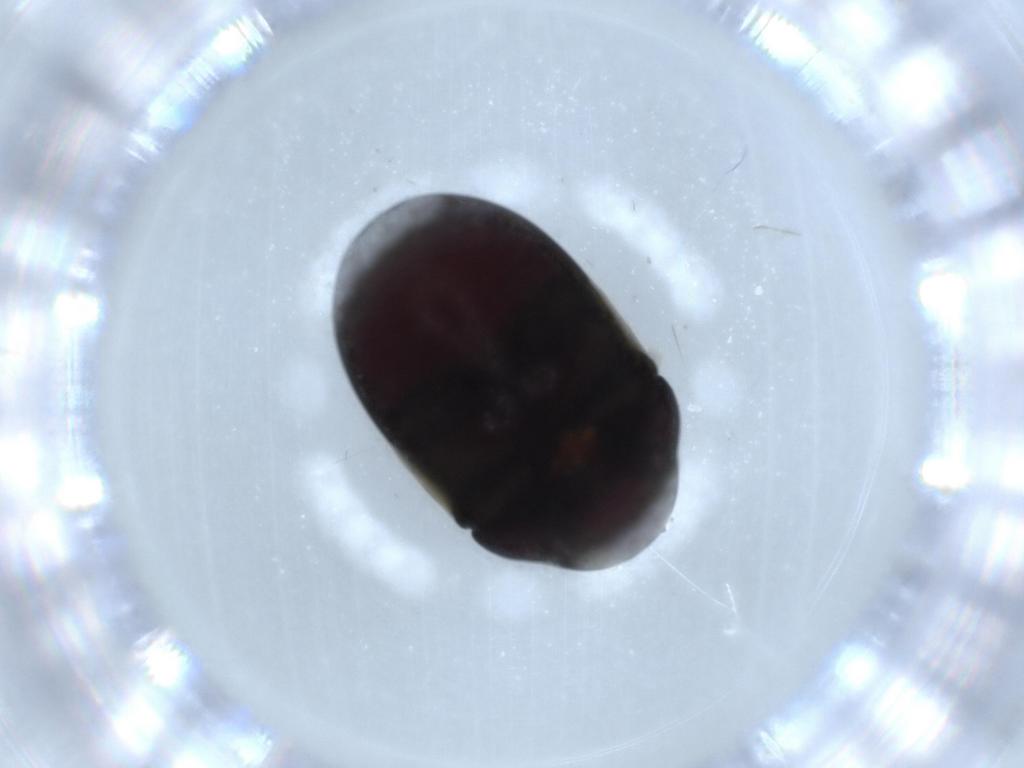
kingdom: Animalia
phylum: Arthropoda
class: Insecta
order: Coleoptera
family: Ptinidae
